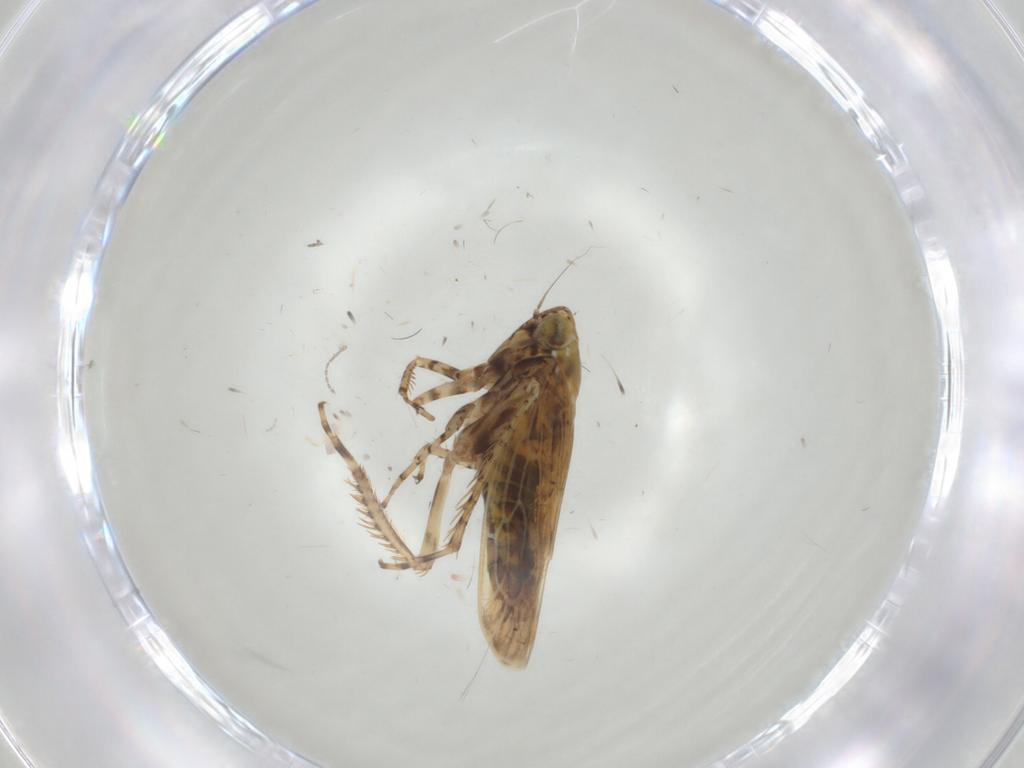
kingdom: Animalia
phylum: Arthropoda
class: Insecta
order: Hemiptera
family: Cicadellidae
